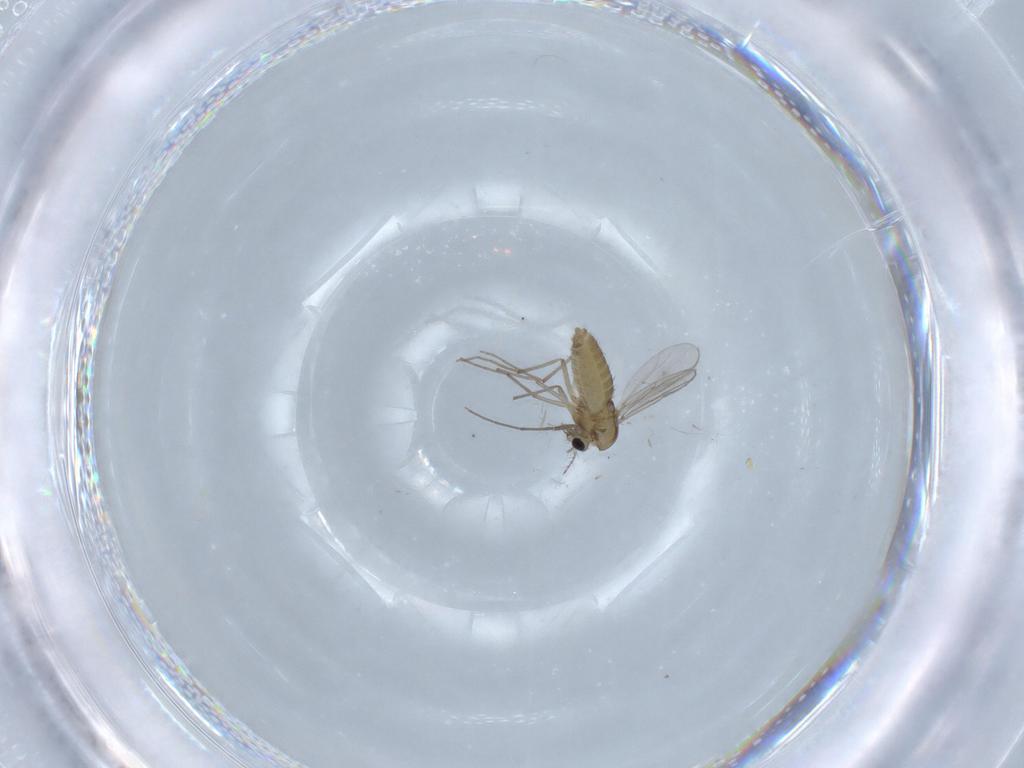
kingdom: Animalia
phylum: Arthropoda
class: Insecta
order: Diptera
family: Chironomidae
